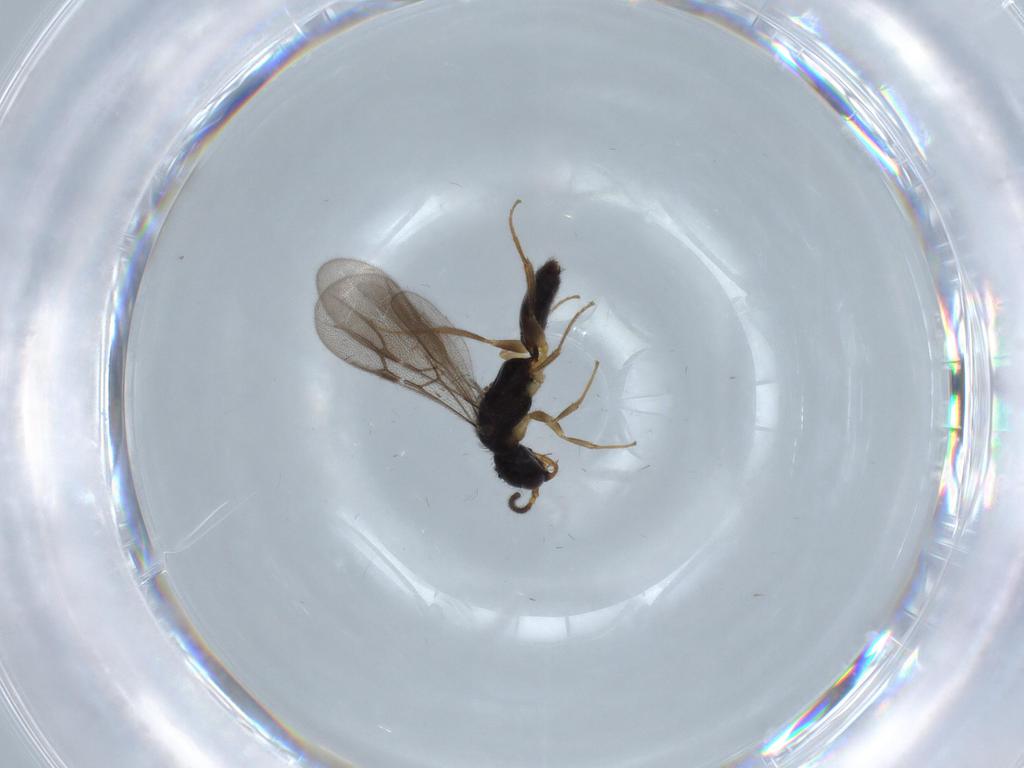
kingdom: Animalia
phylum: Arthropoda
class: Insecta
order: Hymenoptera
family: Bethylidae
